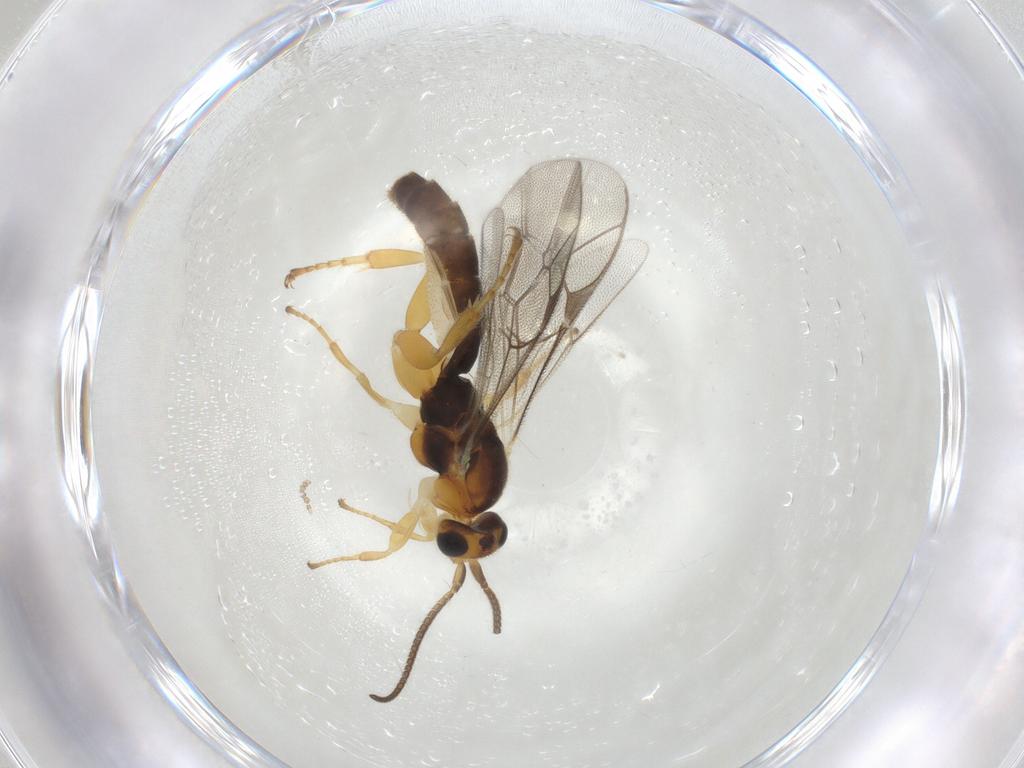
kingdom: Animalia
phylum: Arthropoda
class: Insecta
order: Hymenoptera
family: Ichneumonidae
